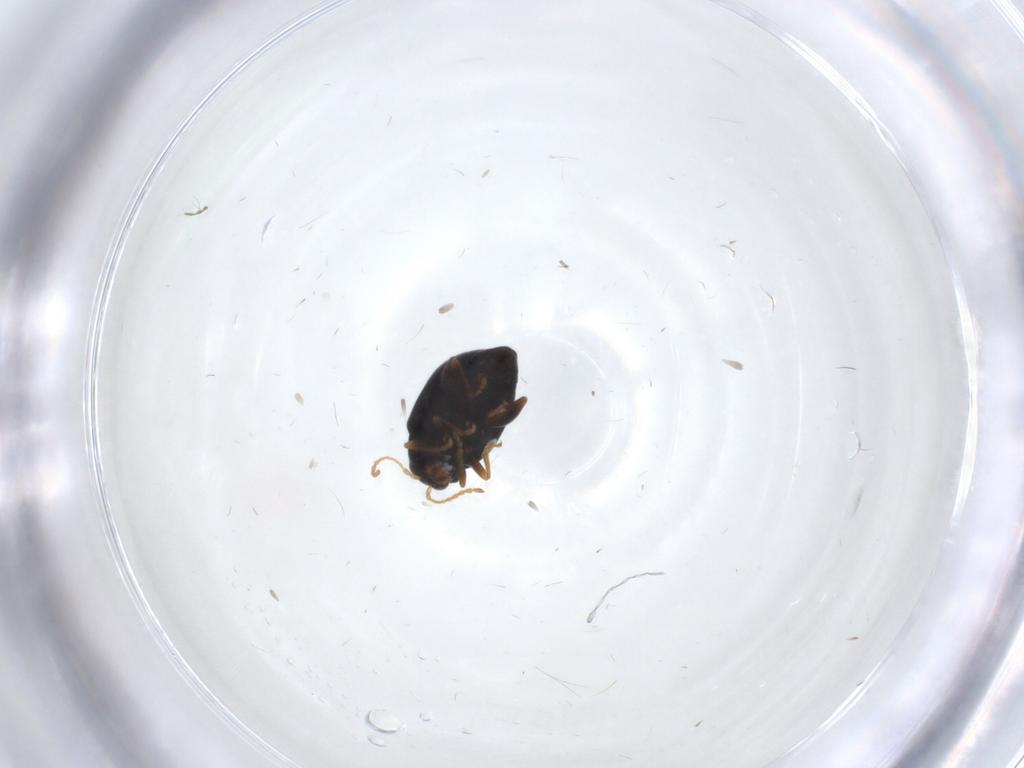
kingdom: Animalia
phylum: Arthropoda
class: Insecta
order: Coleoptera
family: Chrysomelidae
